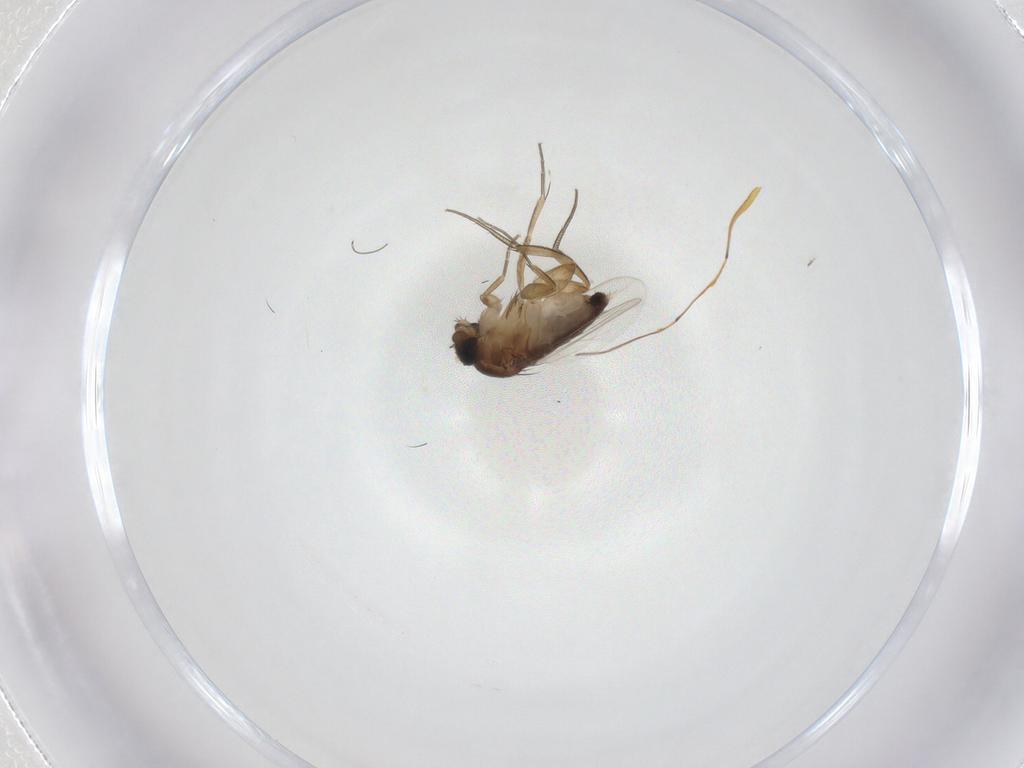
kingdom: Animalia
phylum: Arthropoda
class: Insecta
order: Diptera
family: Phoridae
